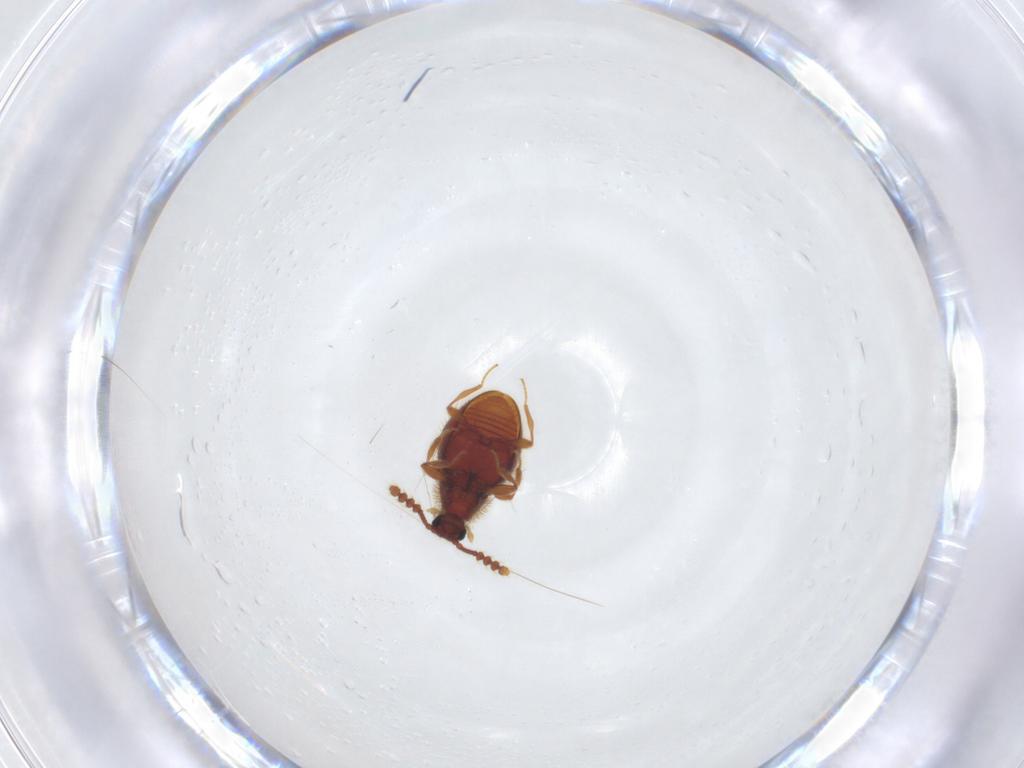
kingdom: Animalia
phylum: Arthropoda
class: Insecta
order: Coleoptera
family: Staphylinidae
